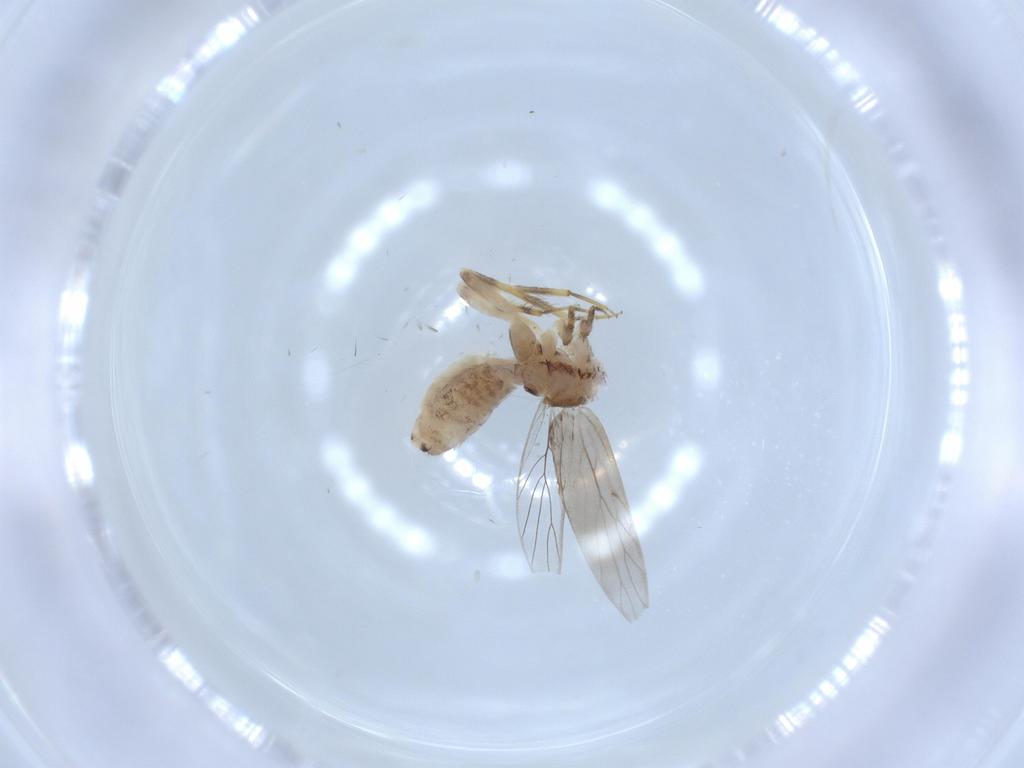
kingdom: Animalia
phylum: Arthropoda
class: Insecta
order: Psocodea
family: Lepidopsocidae
